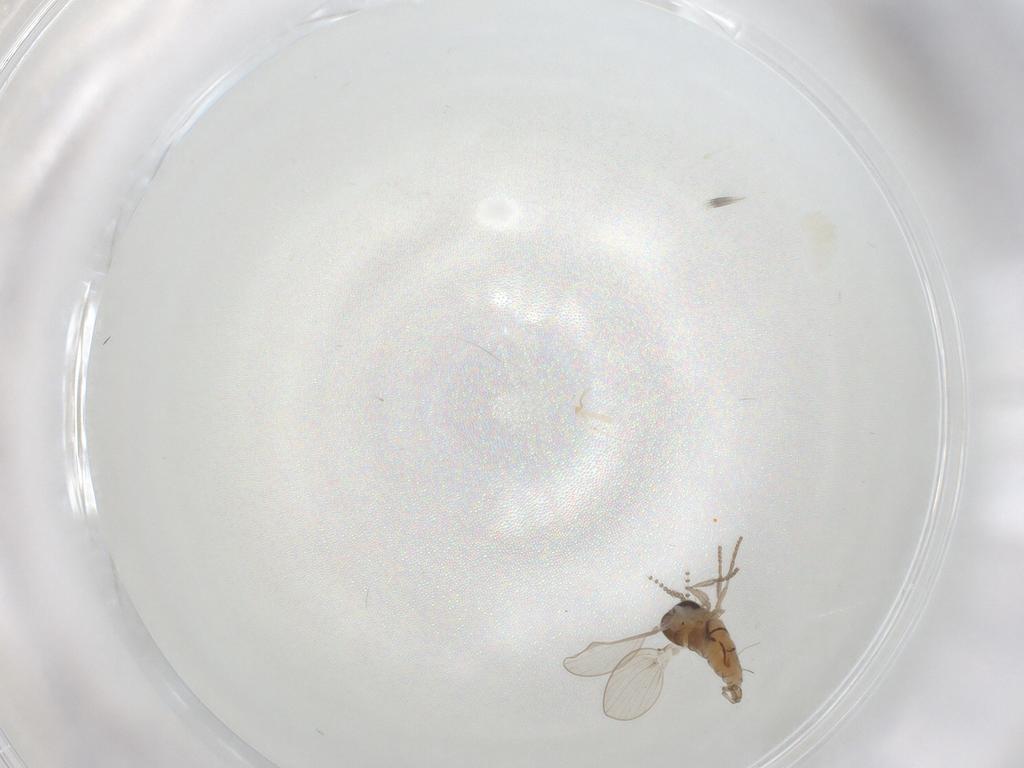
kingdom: Animalia
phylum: Arthropoda
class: Insecta
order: Diptera
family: Psychodidae
